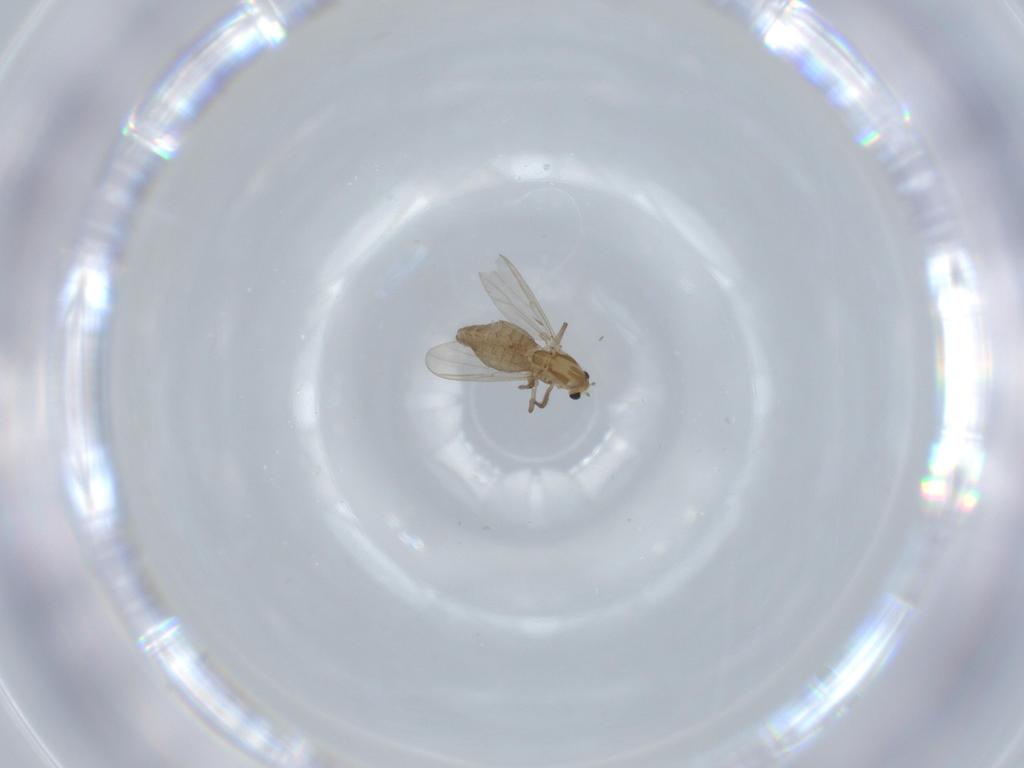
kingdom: Animalia
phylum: Arthropoda
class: Insecta
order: Diptera
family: Chironomidae
